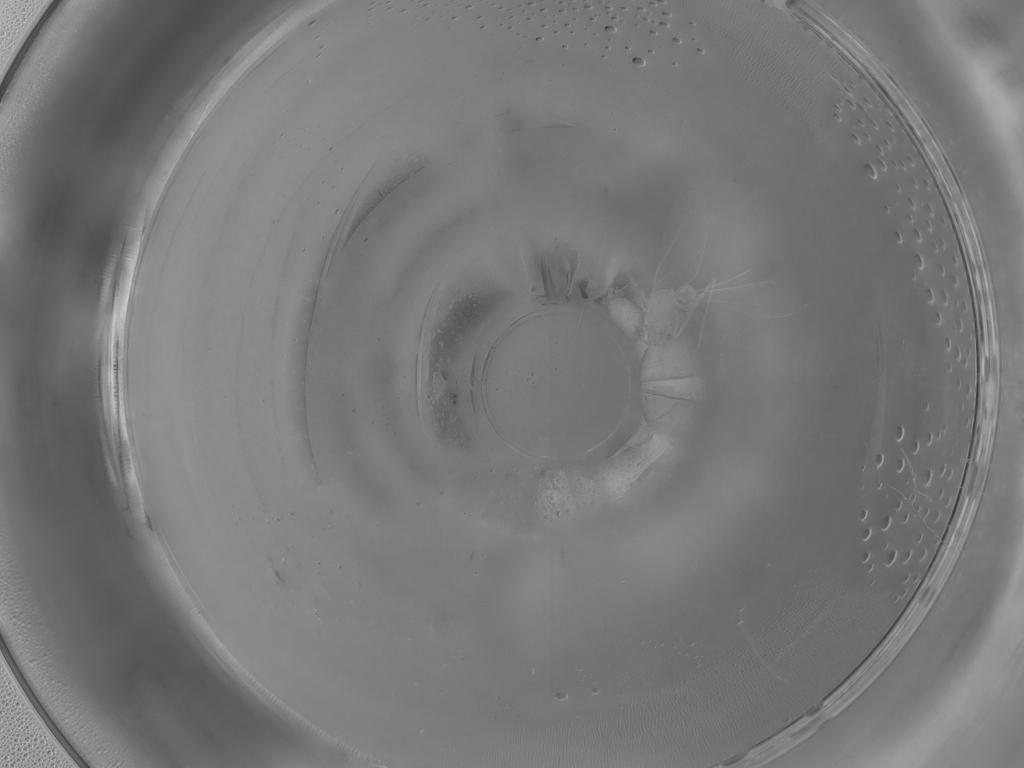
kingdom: Animalia
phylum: Arthropoda
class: Insecta
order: Diptera
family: Cecidomyiidae
